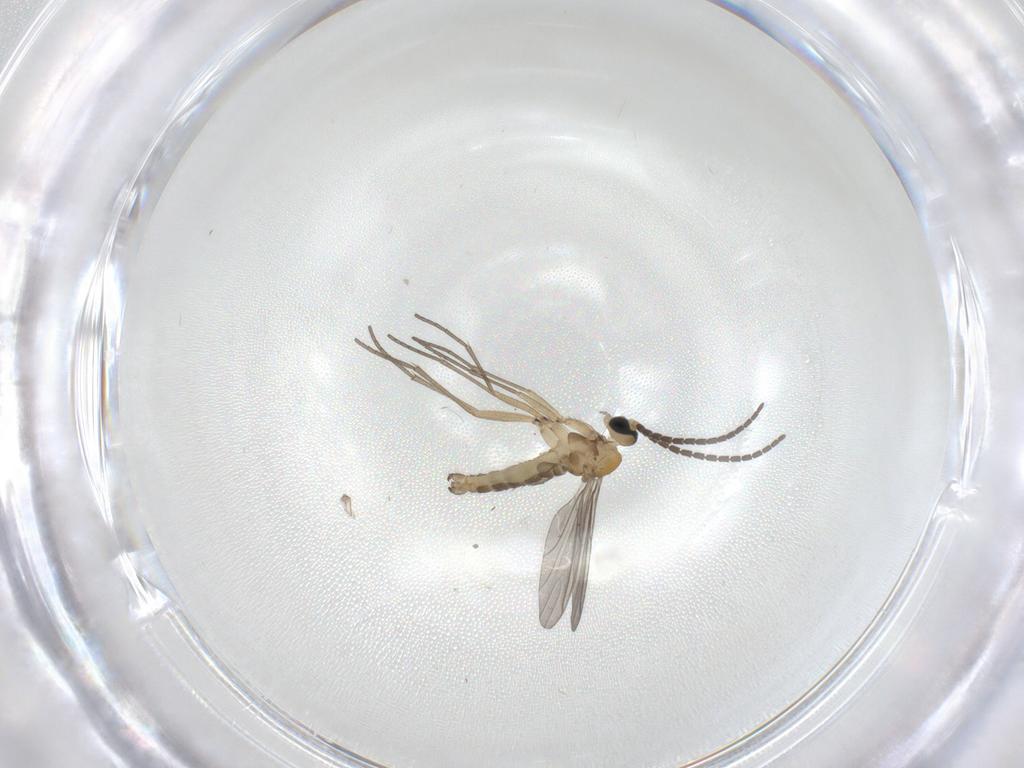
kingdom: Animalia
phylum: Arthropoda
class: Insecta
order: Diptera
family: Sciaridae
